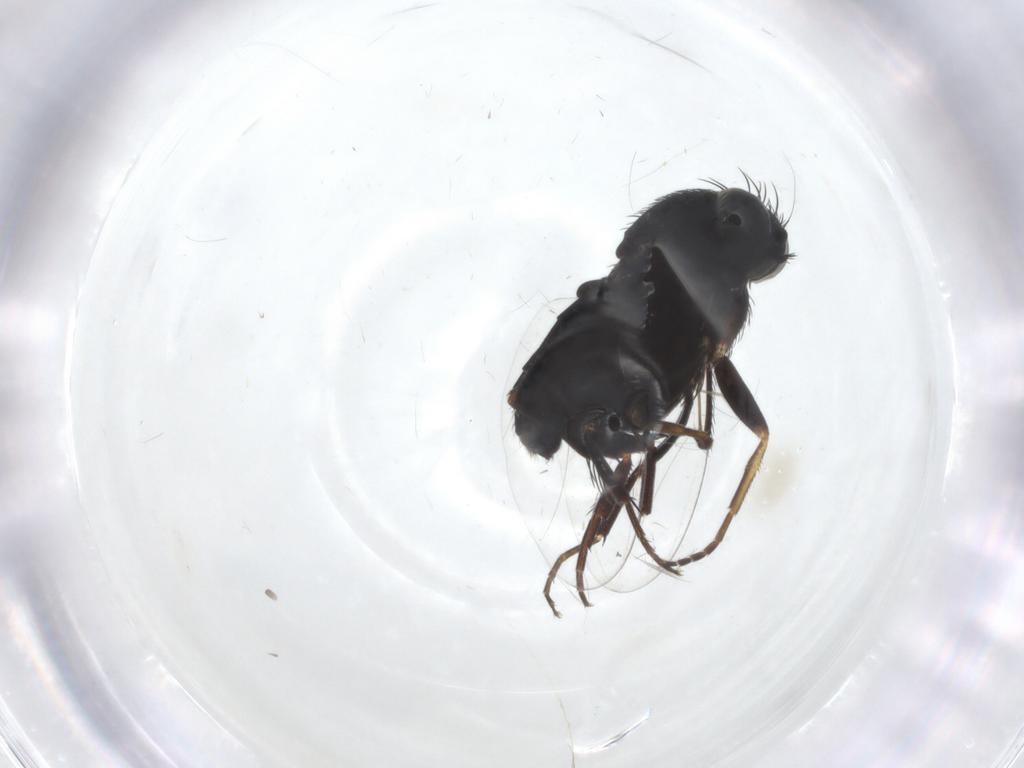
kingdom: Animalia
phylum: Arthropoda
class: Insecta
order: Diptera
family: Phoridae
